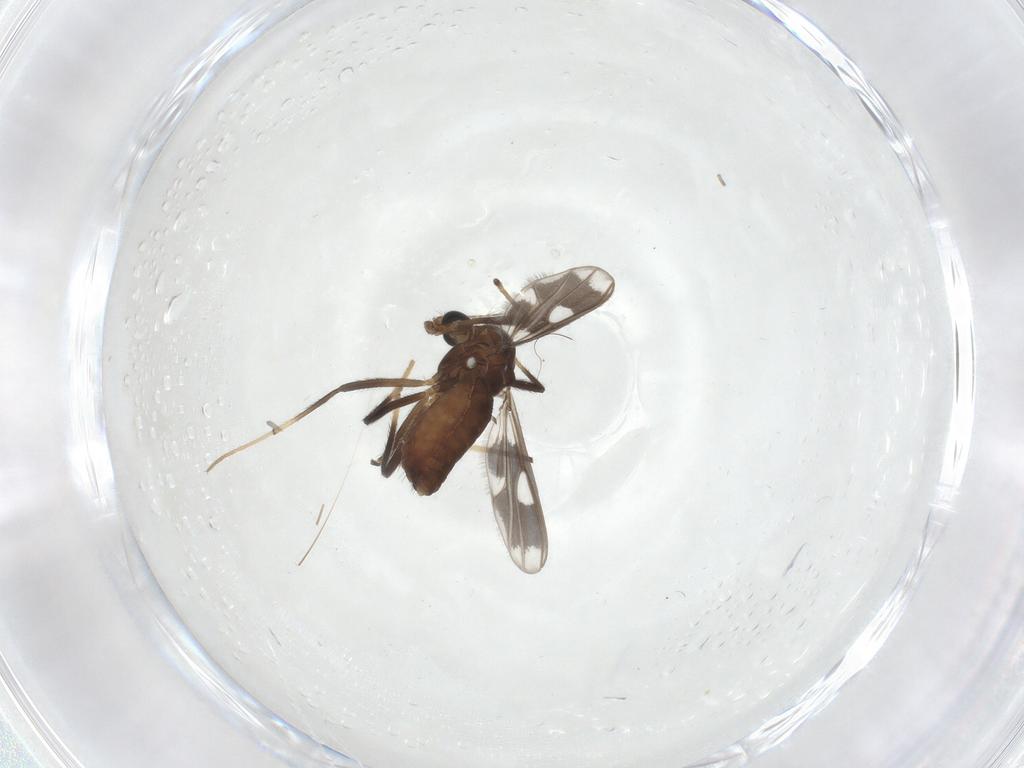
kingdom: Animalia
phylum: Arthropoda
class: Insecta
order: Diptera
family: Chironomidae
